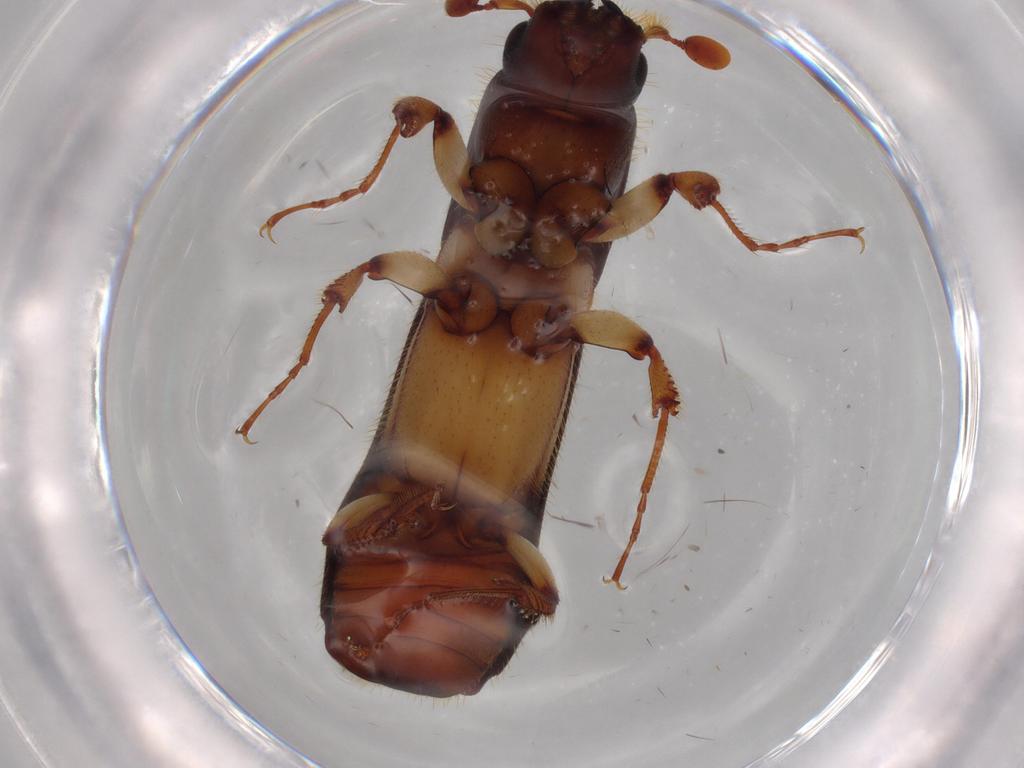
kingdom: Animalia
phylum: Arthropoda
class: Insecta
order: Coleoptera
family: Curculionidae
